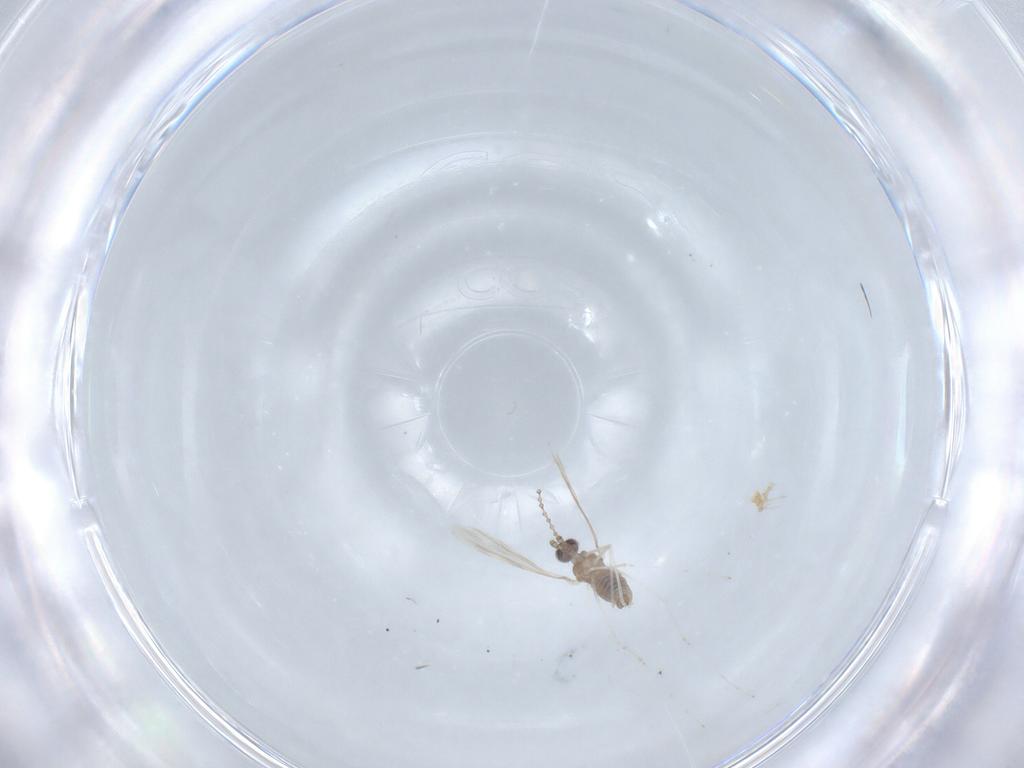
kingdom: Animalia
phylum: Arthropoda
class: Insecta
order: Diptera
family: Cecidomyiidae
